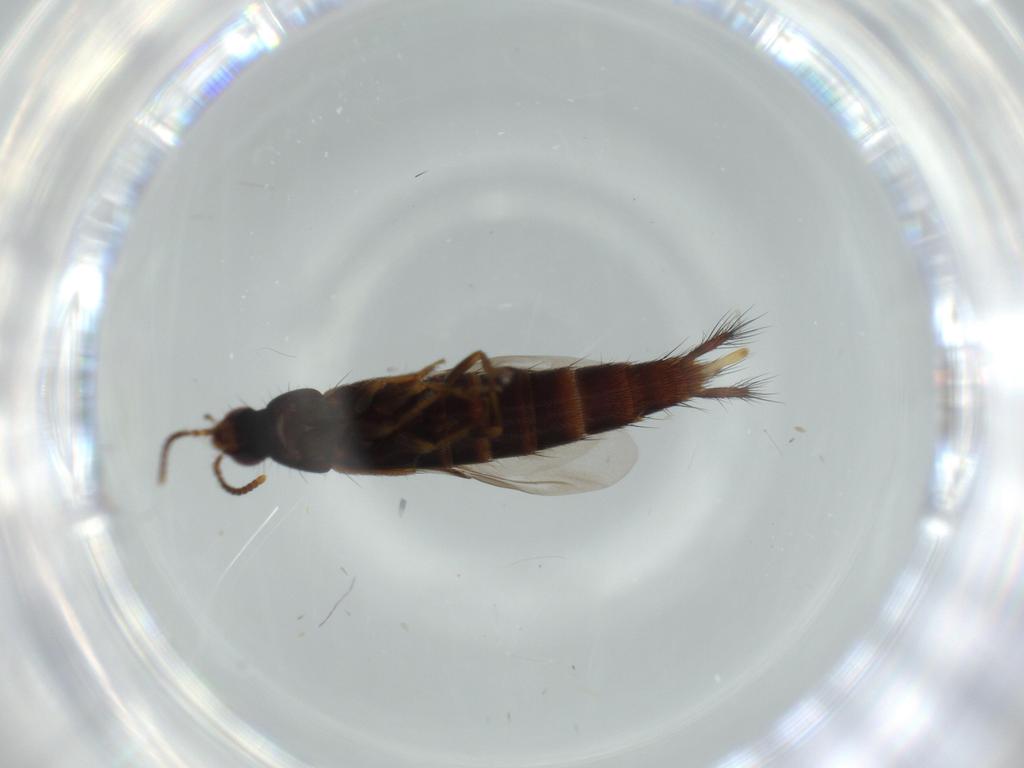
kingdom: Animalia
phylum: Arthropoda
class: Insecta
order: Coleoptera
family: Staphylinidae
